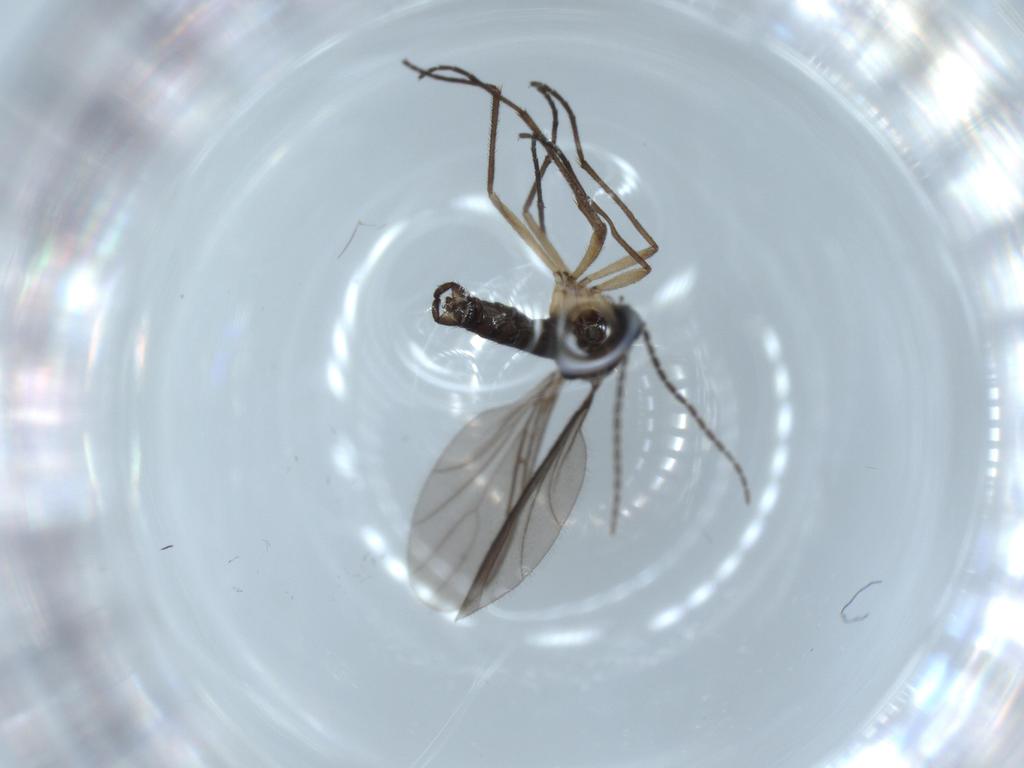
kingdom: Animalia
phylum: Arthropoda
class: Insecta
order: Diptera
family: Sciaridae
